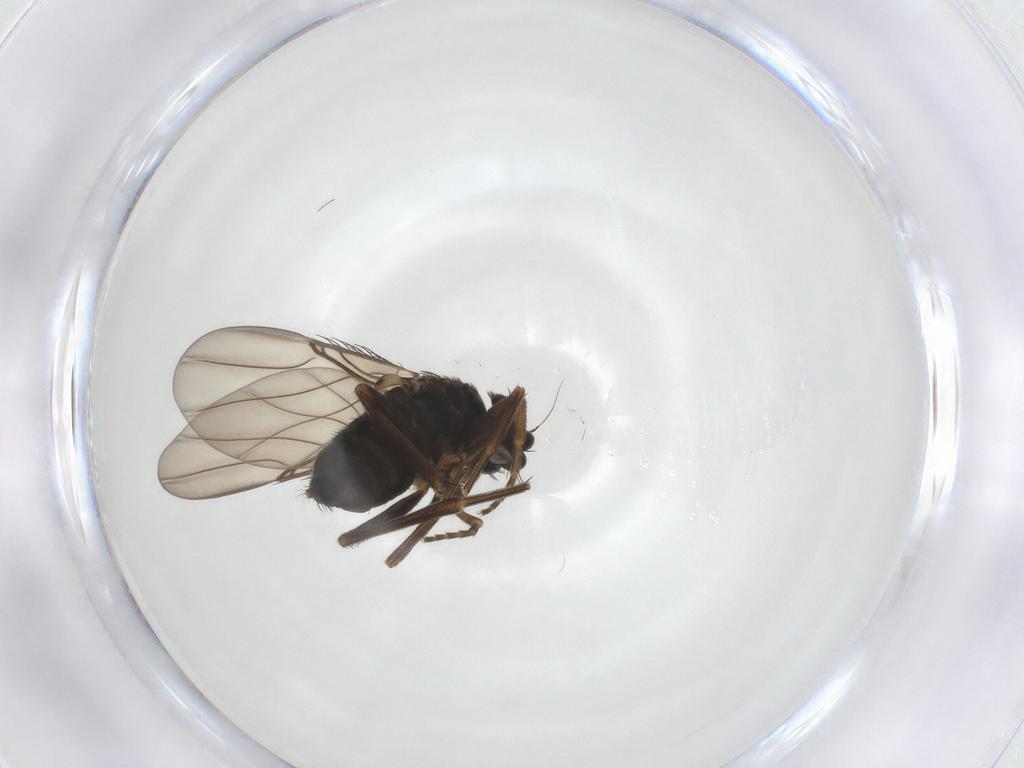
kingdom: Animalia
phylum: Arthropoda
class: Insecta
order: Diptera
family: Phoridae
